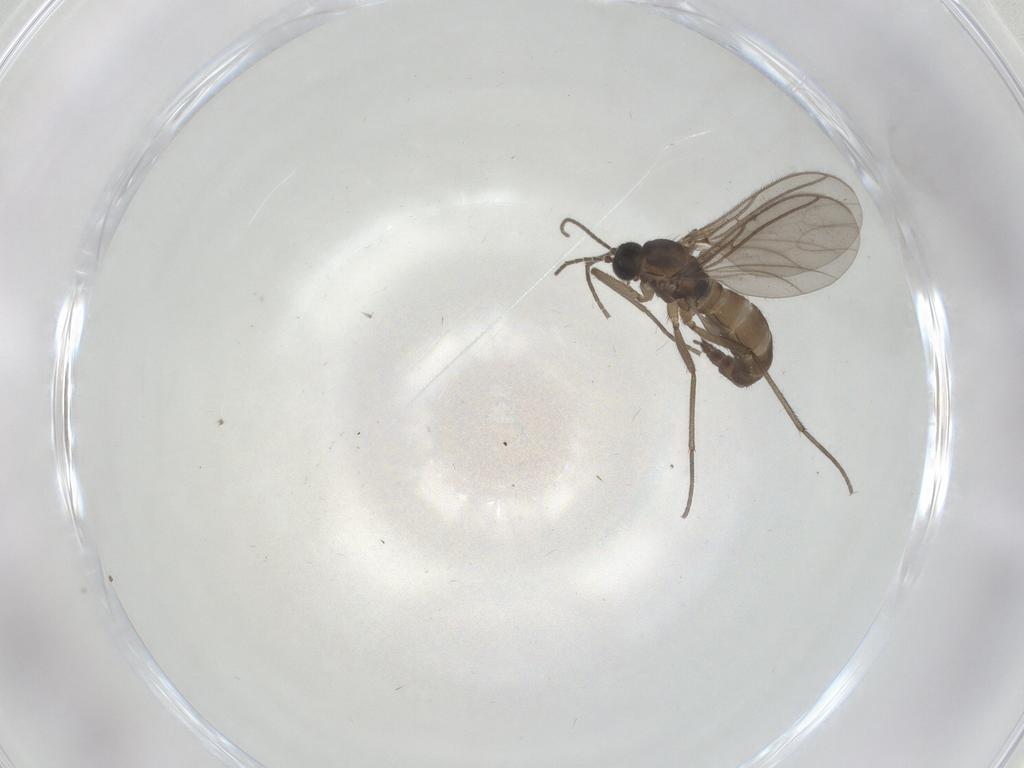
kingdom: Animalia
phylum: Arthropoda
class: Insecta
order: Diptera
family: Sciaridae
